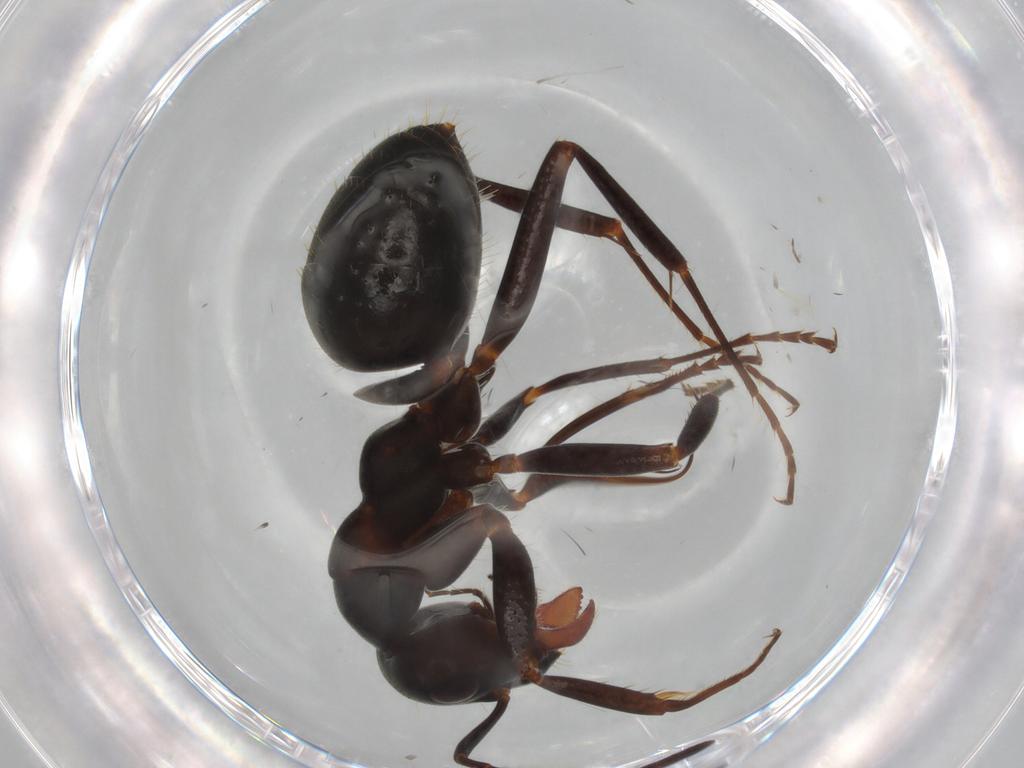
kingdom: Animalia
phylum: Arthropoda
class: Insecta
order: Hymenoptera
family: Formicidae
